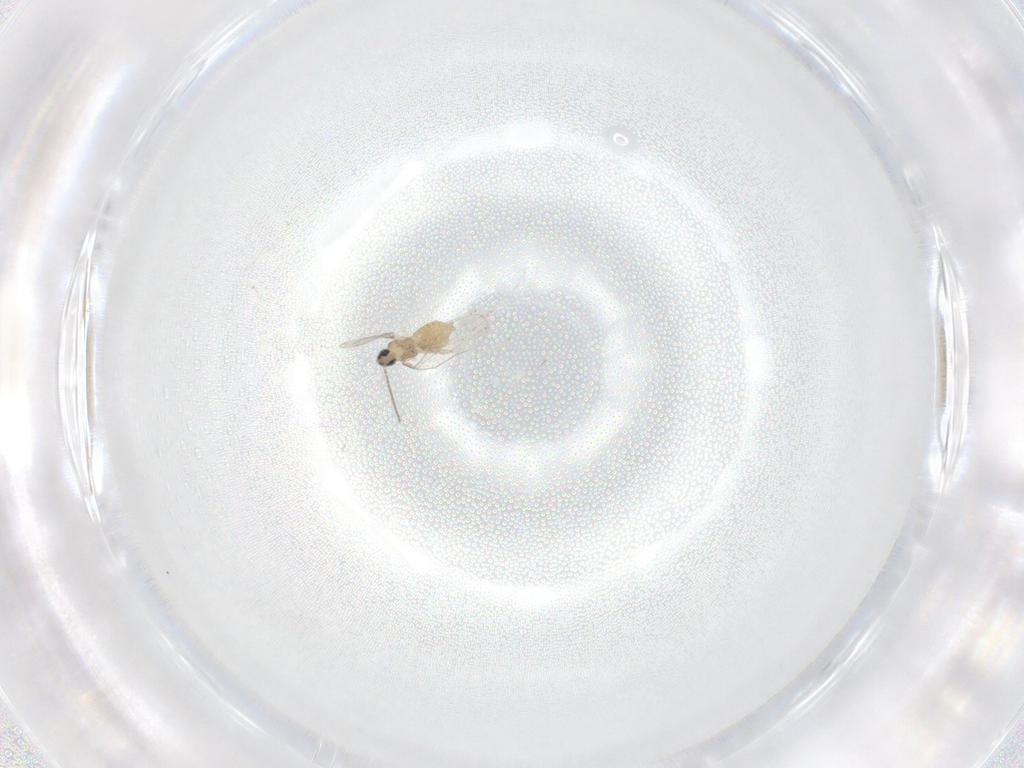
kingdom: Animalia
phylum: Arthropoda
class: Insecta
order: Diptera
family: Cecidomyiidae
